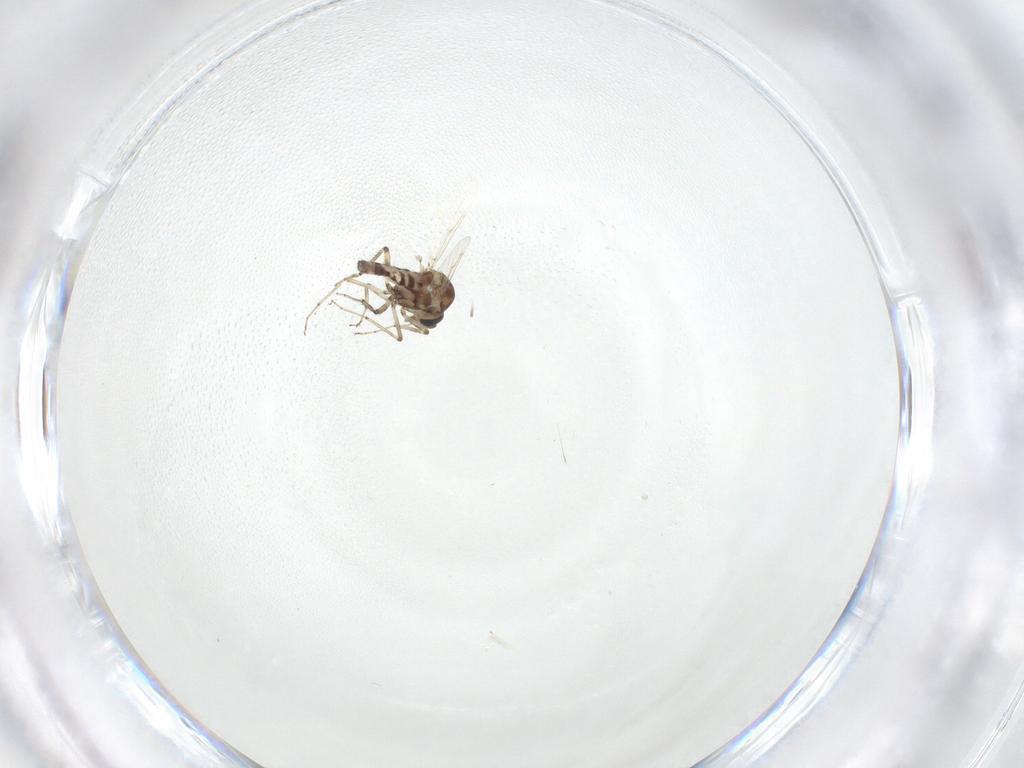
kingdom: Animalia
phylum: Arthropoda
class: Insecta
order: Diptera
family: Ceratopogonidae
